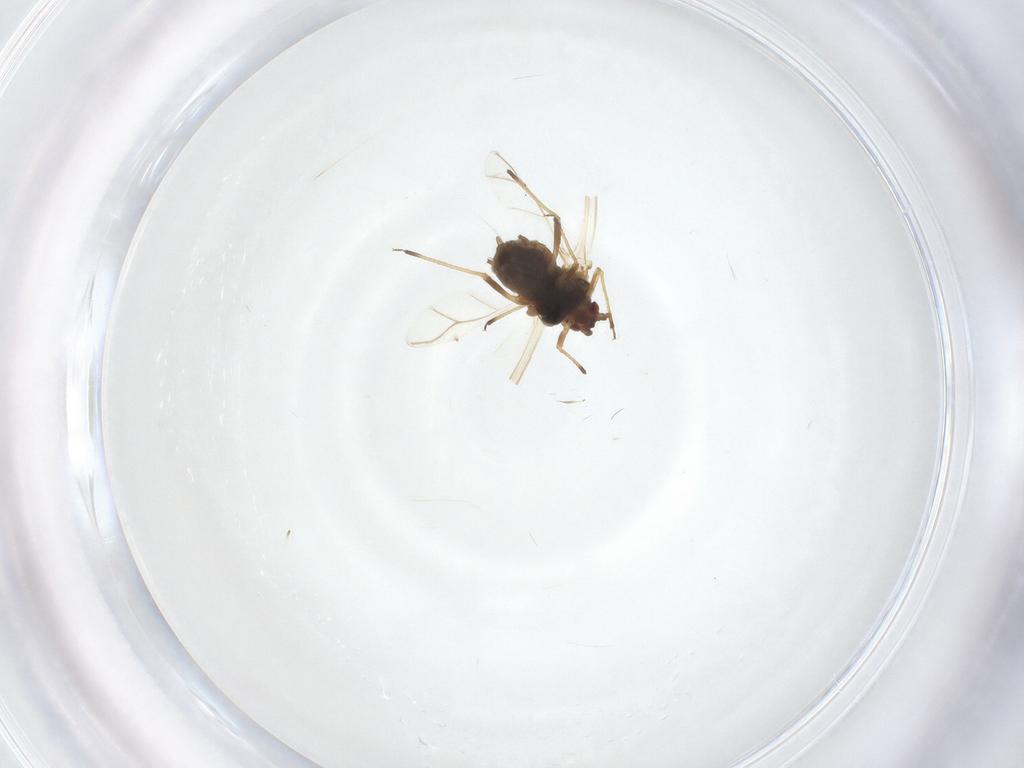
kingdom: Animalia
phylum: Arthropoda
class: Insecta
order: Hemiptera
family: Aphididae
